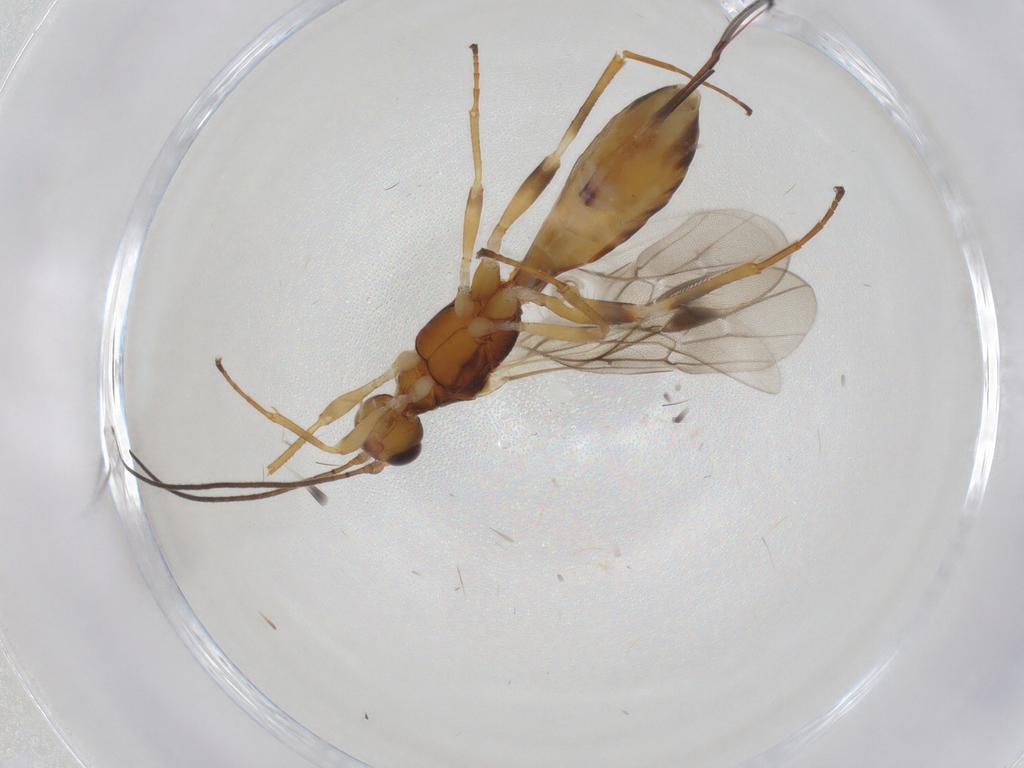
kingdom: Animalia
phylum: Arthropoda
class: Insecta
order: Hymenoptera
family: Braconidae
